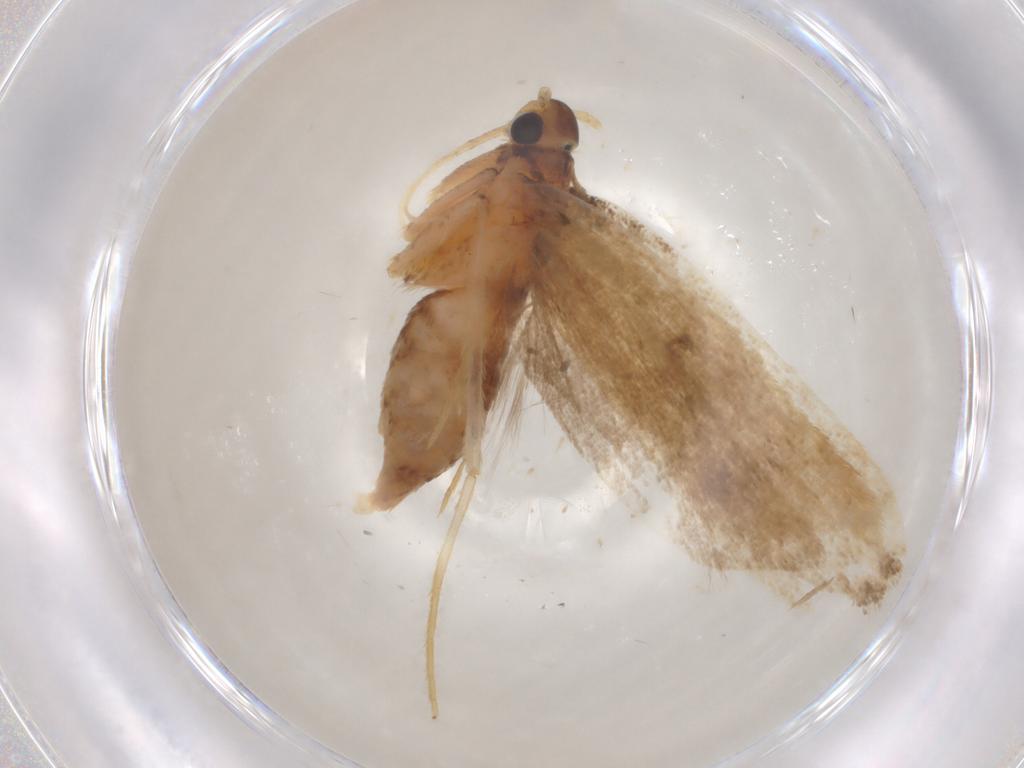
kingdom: Animalia
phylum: Arthropoda
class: Insecta
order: Lepidoptera
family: Lecithoceridae
